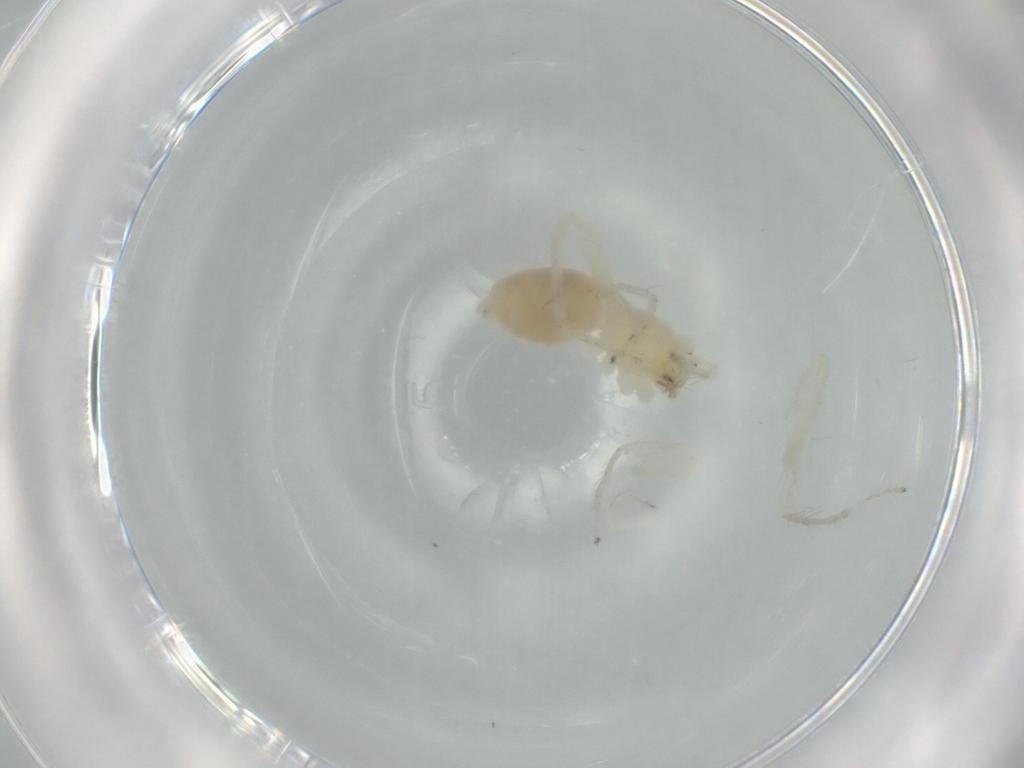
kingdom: Animalia
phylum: Arthropoda
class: Arachnida
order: Araneae
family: Anyphaenidae
